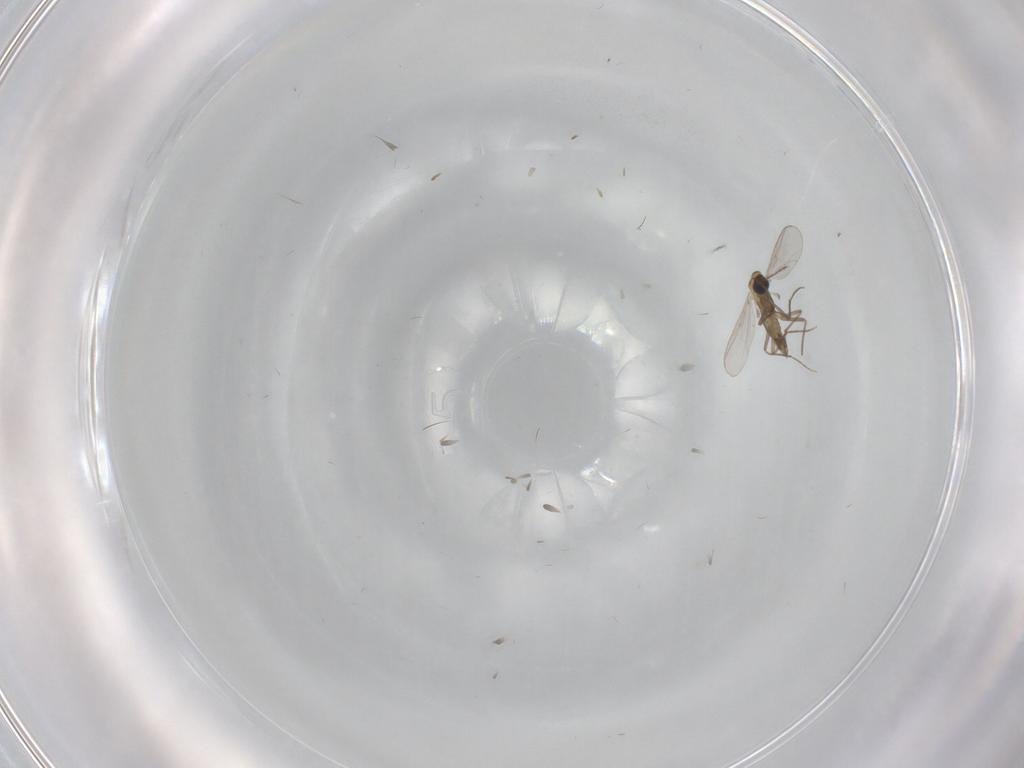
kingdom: Animalia
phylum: Arthropoda
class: Insecta
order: Diptera
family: Chironomidae
